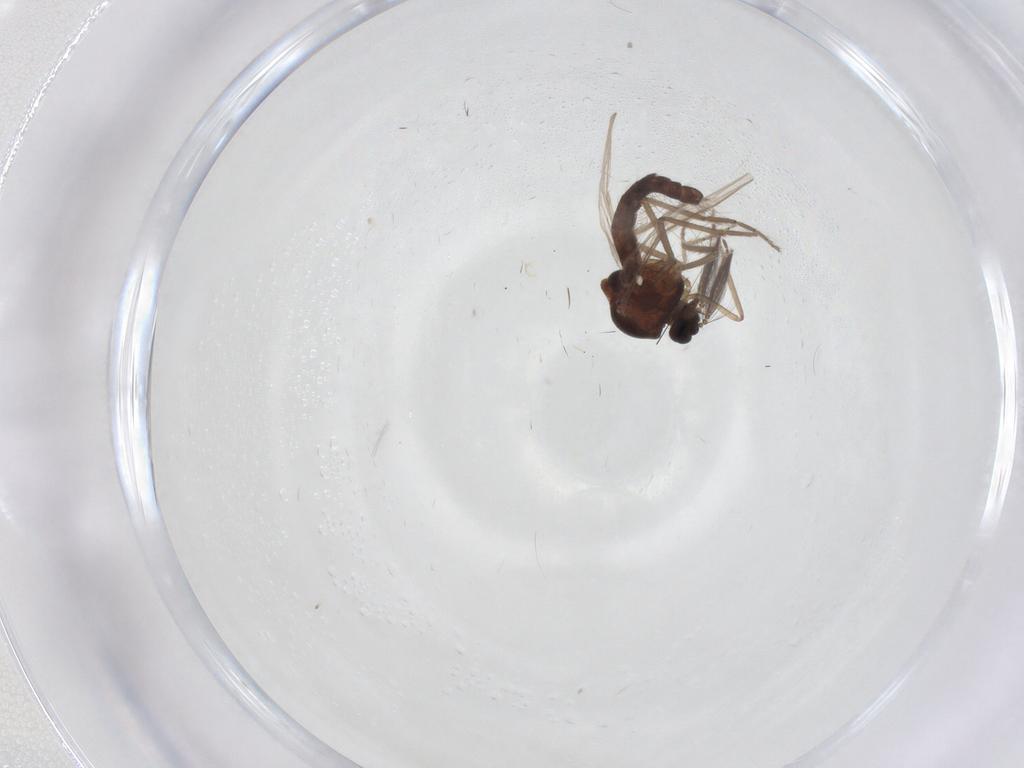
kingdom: Animalia
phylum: Arthropoda
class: Insecta
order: Diptera
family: Ceratopogonidae
